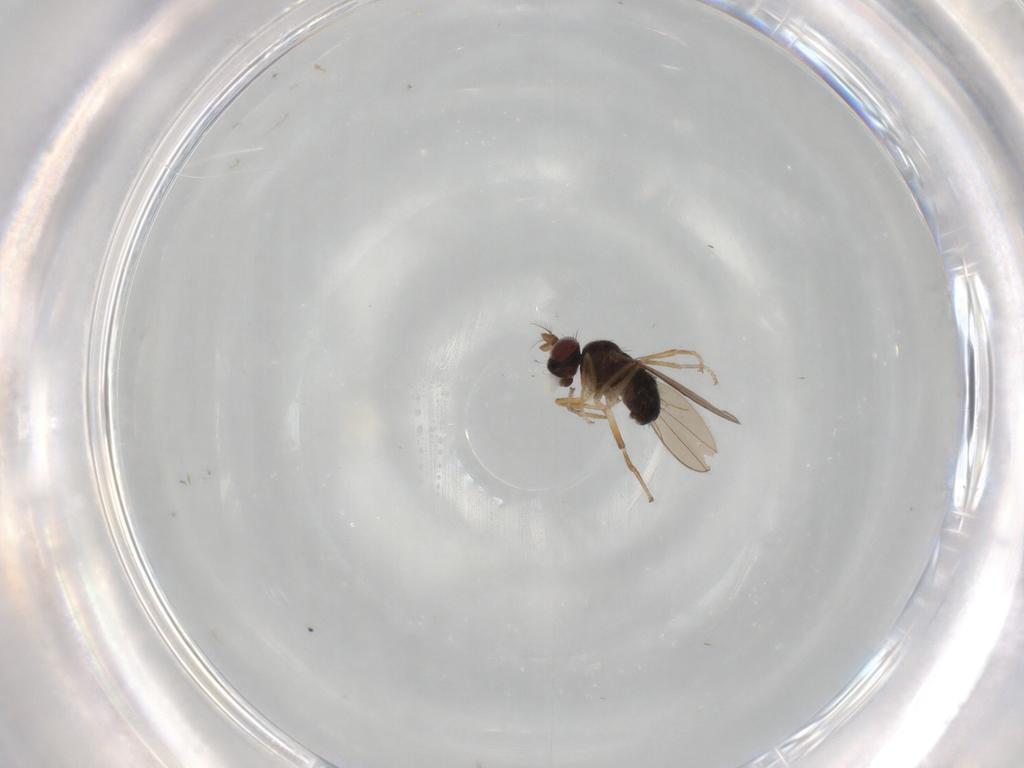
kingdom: Animalia
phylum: Arthropoda
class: Insecta
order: Diptera
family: Ephydridae
